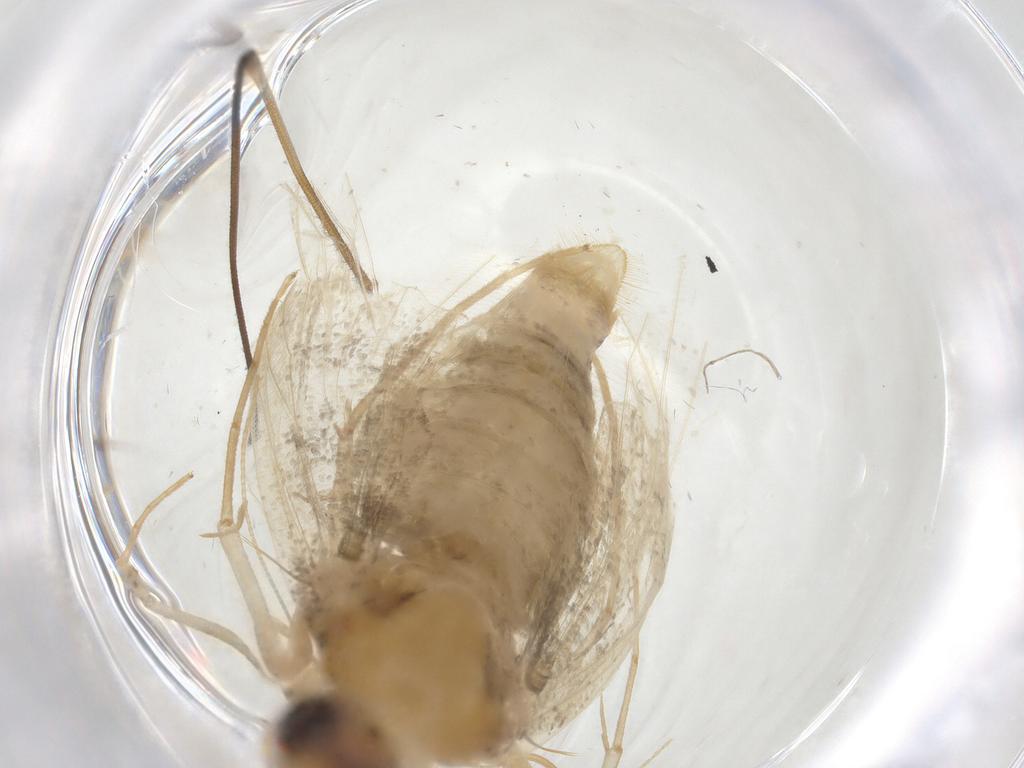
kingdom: Animalia
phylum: Arthropoda
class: Insecta
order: Lepidoptera
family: Crambidae
